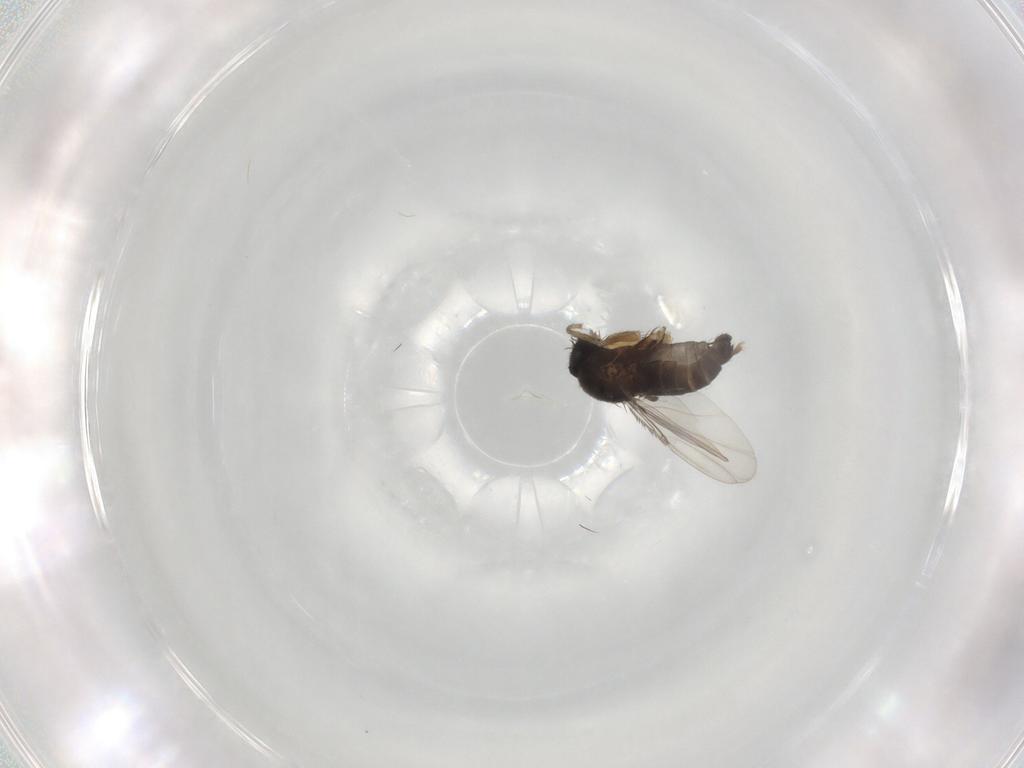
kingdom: Animalia
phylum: Arthropoda
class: Insecta
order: Diptera
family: Phoridae
